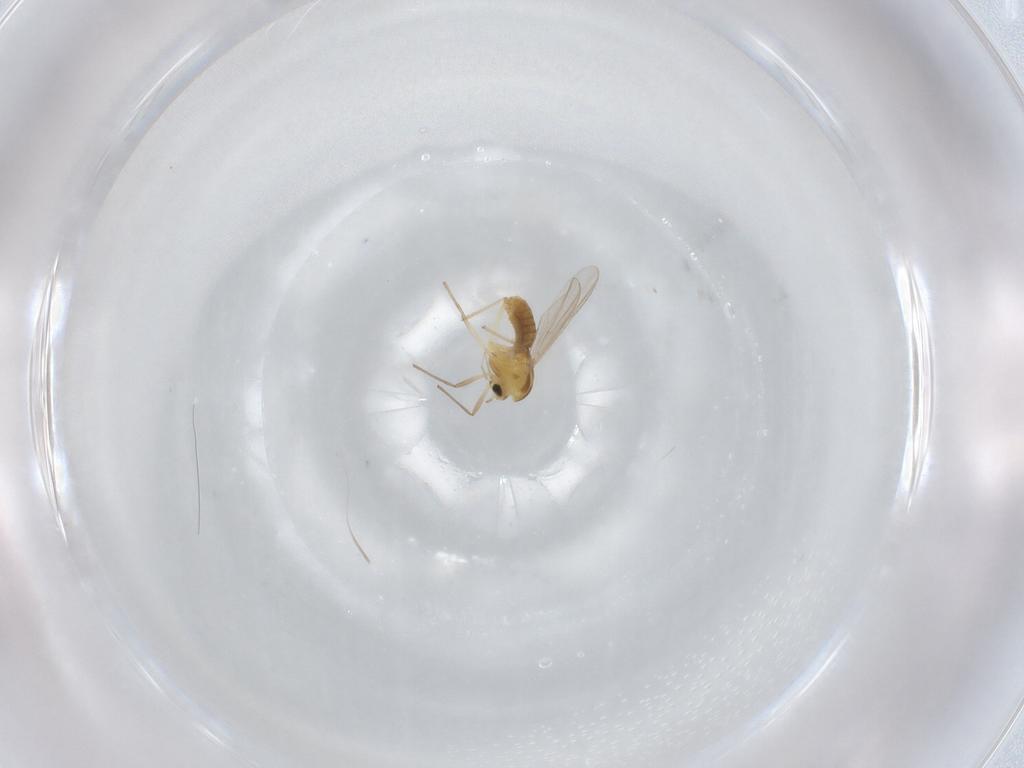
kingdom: Animalia
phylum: Arthropoda
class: Insecta
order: Diptera
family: Chironomidae
